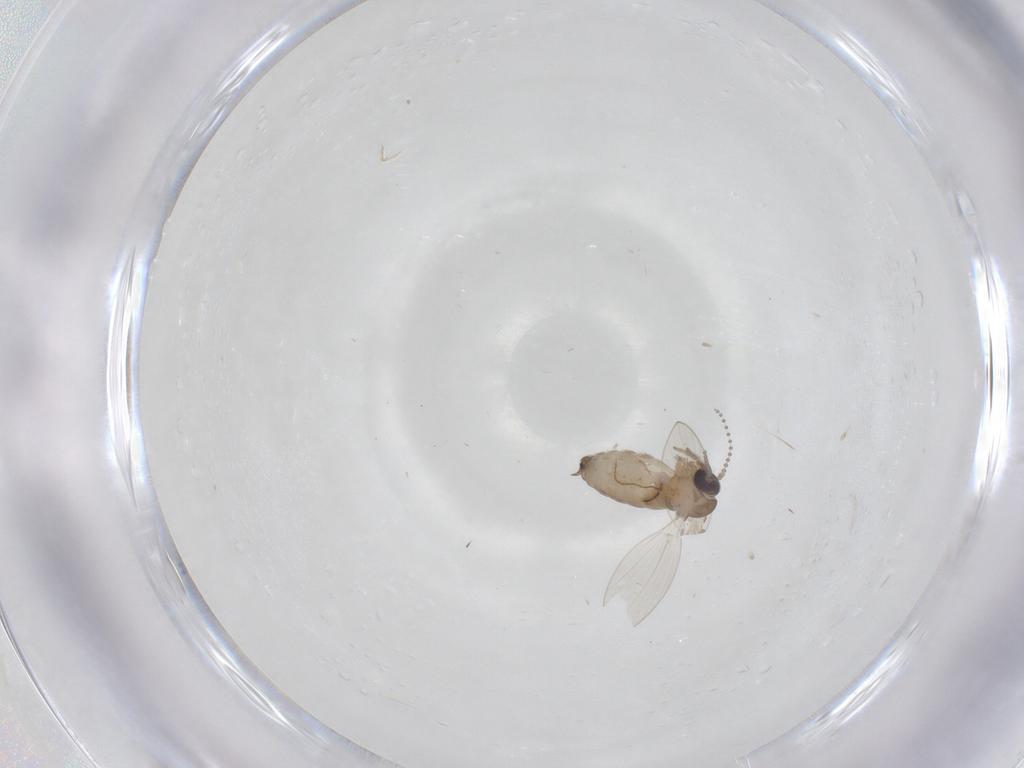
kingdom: Animalia
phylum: Arthropoda
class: Insecta
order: Diptera
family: Psychodidae
